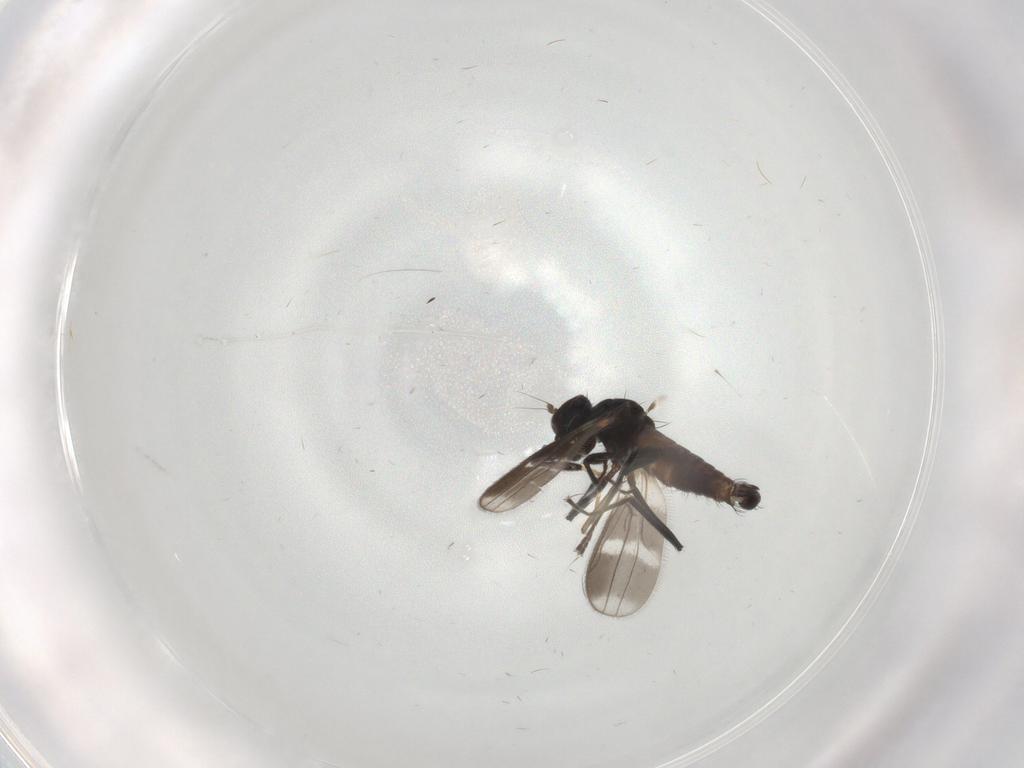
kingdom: Animalia
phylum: Arthropoda
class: Insecta
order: Diptera
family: Hybotidae
